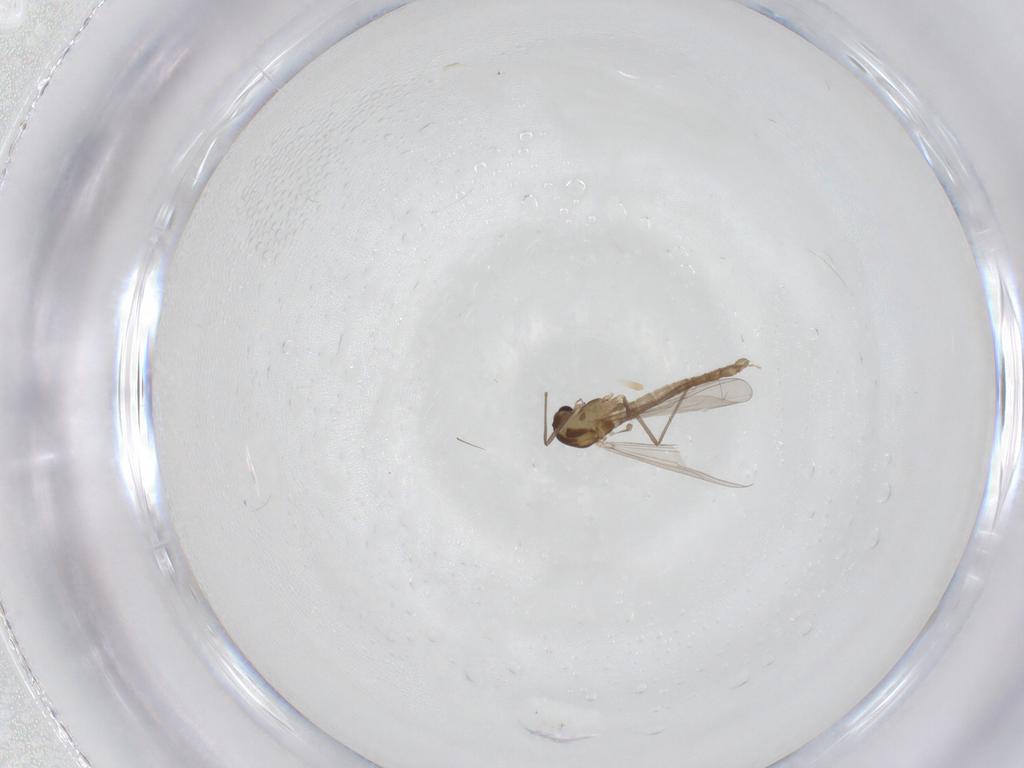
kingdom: Animalia
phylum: Arthropoda
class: Insecta
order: Diptera
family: Chironomidae
